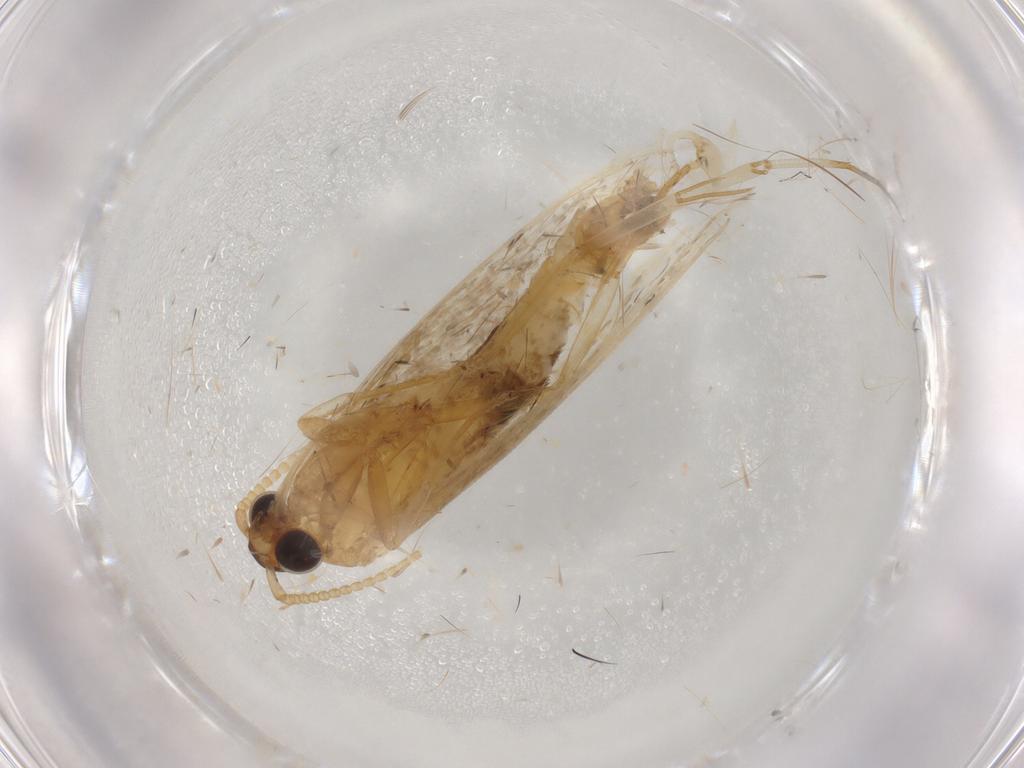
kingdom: Animalia
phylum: Arthropoda
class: Insecta
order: Lepidoptera
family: Lecithoceridae
